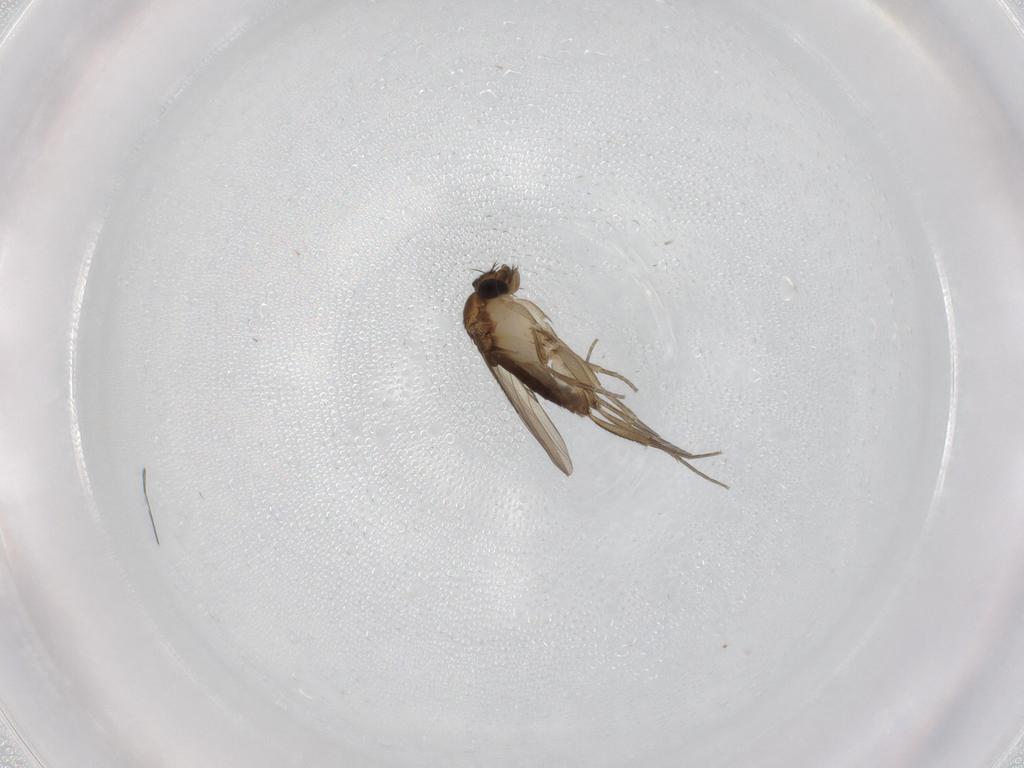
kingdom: Animalia
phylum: Arthropoda
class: Insecta
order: Diptera
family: Phoridae
